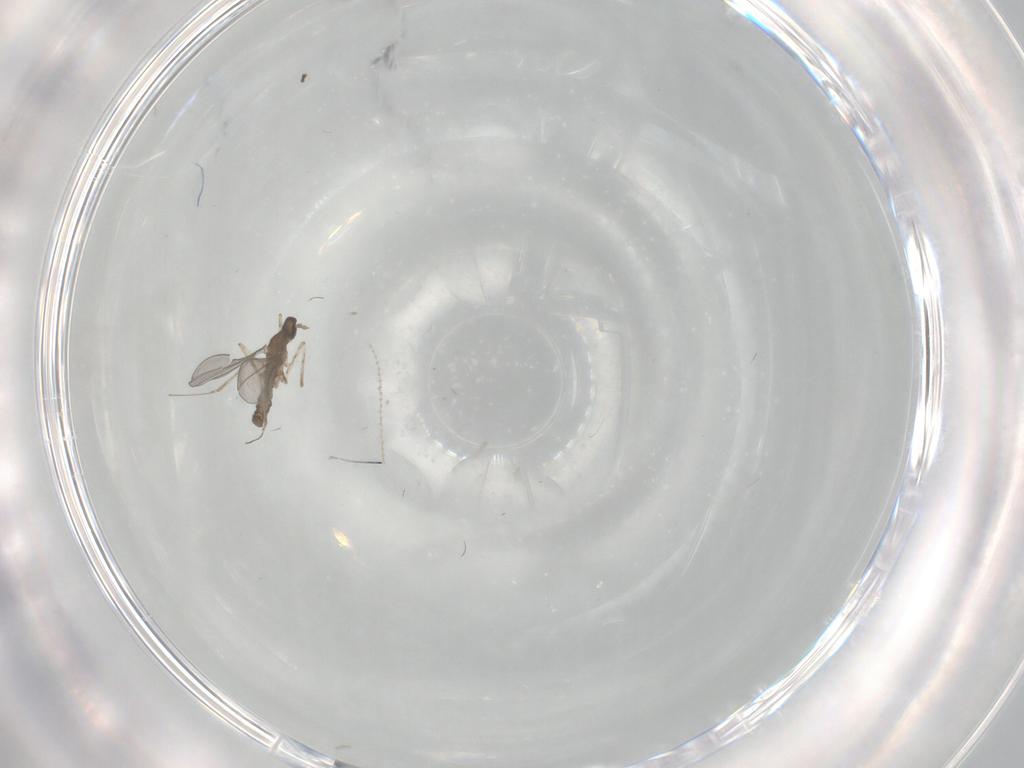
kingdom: Animalia
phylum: Arthropoda
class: Insecta
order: Diptera
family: Cecidomyiidae
